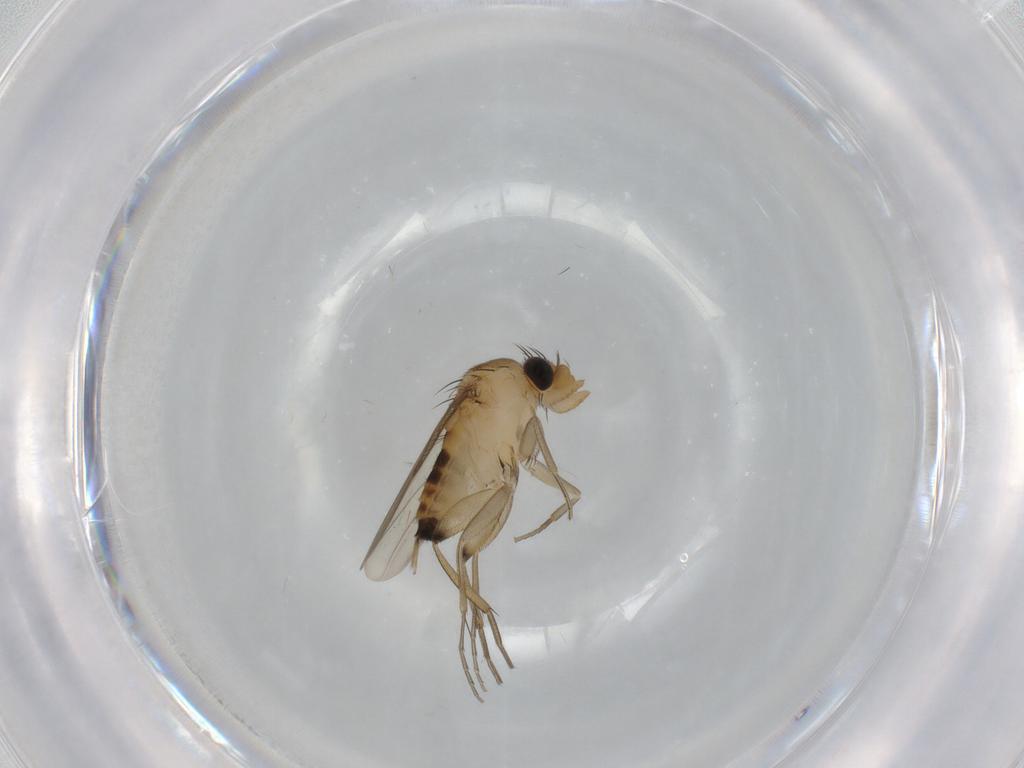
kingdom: Animalia
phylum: Arthropoda
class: Insecta
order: Diptera
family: Phoridae
